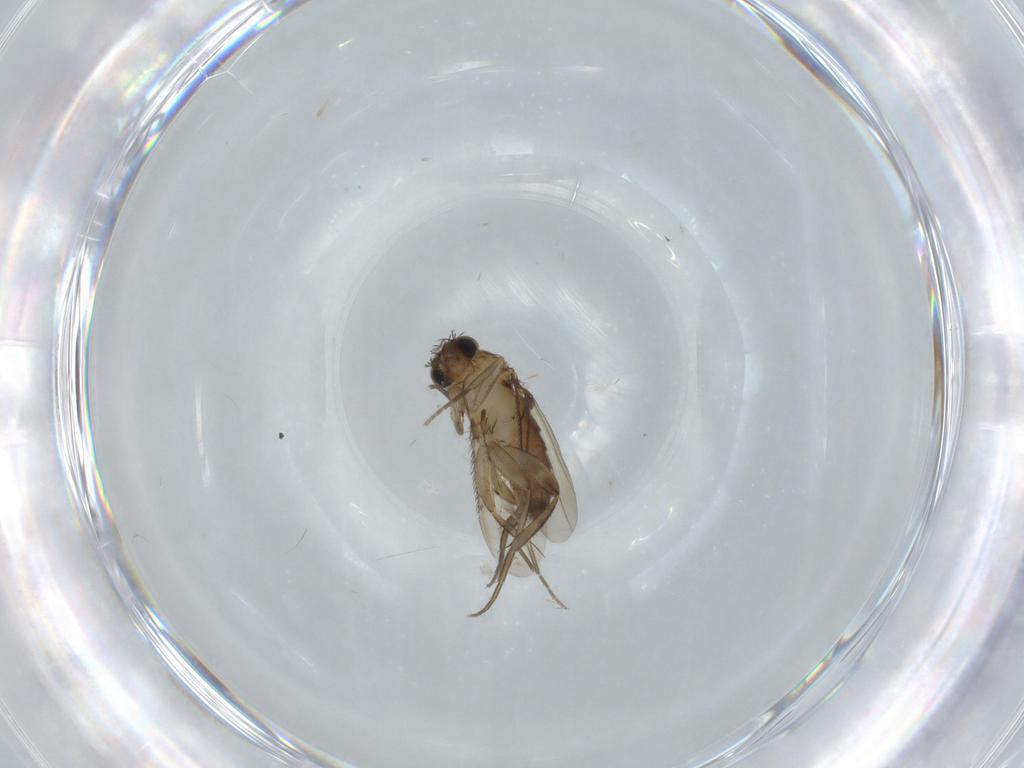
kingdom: Animalia
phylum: Arthropoda
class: Insecta
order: Diptera
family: Phoridae
